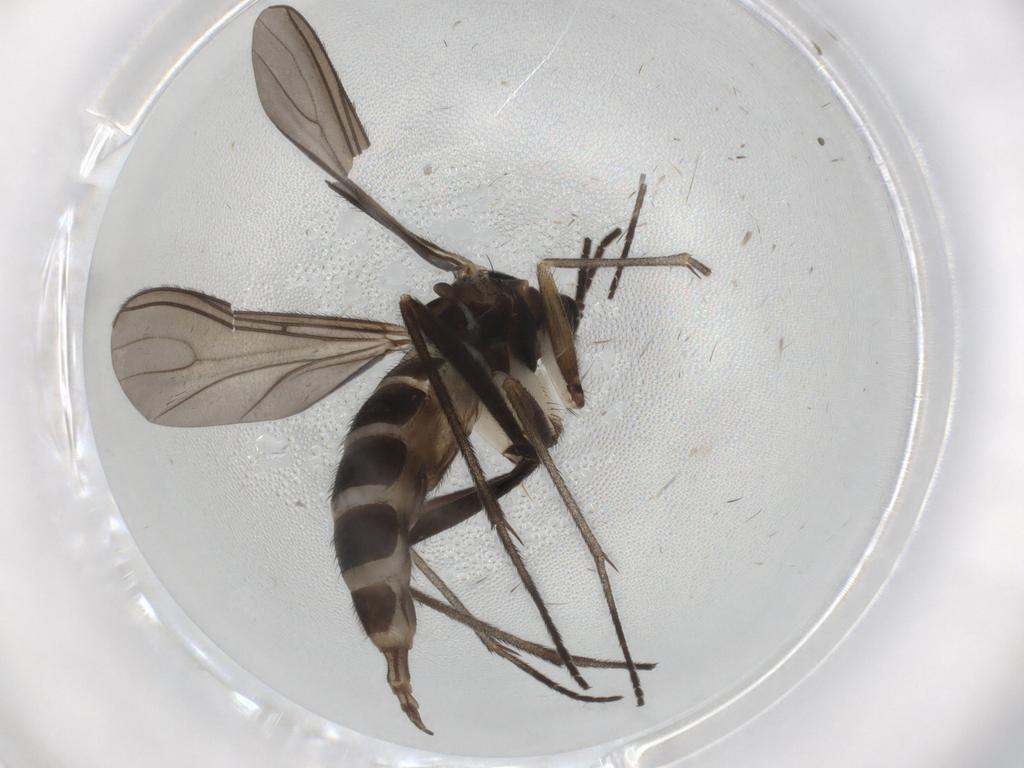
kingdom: Animalia
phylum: Arthropoda
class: Insecta
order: Diptera
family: Sciaridae
